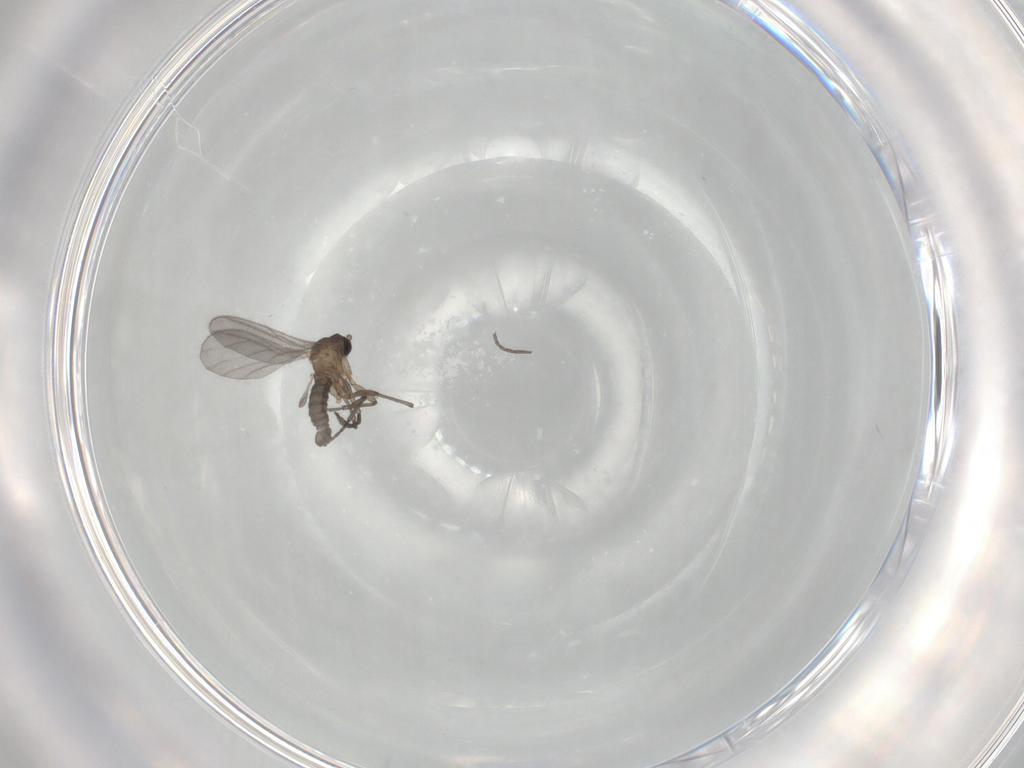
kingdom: Animalia
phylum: Arthropoda
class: Insecta
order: Diptera
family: Sciaridae
